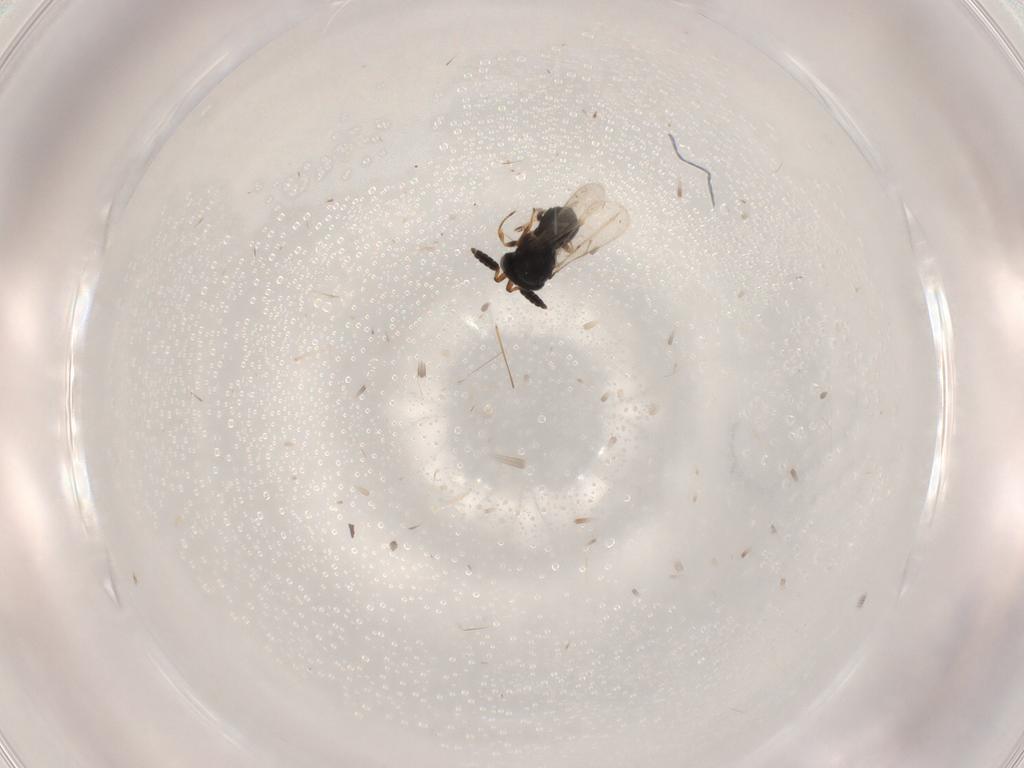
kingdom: Animalia
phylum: Arthropoda
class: Insecta
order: Hymenoptera
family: Scelionidae
